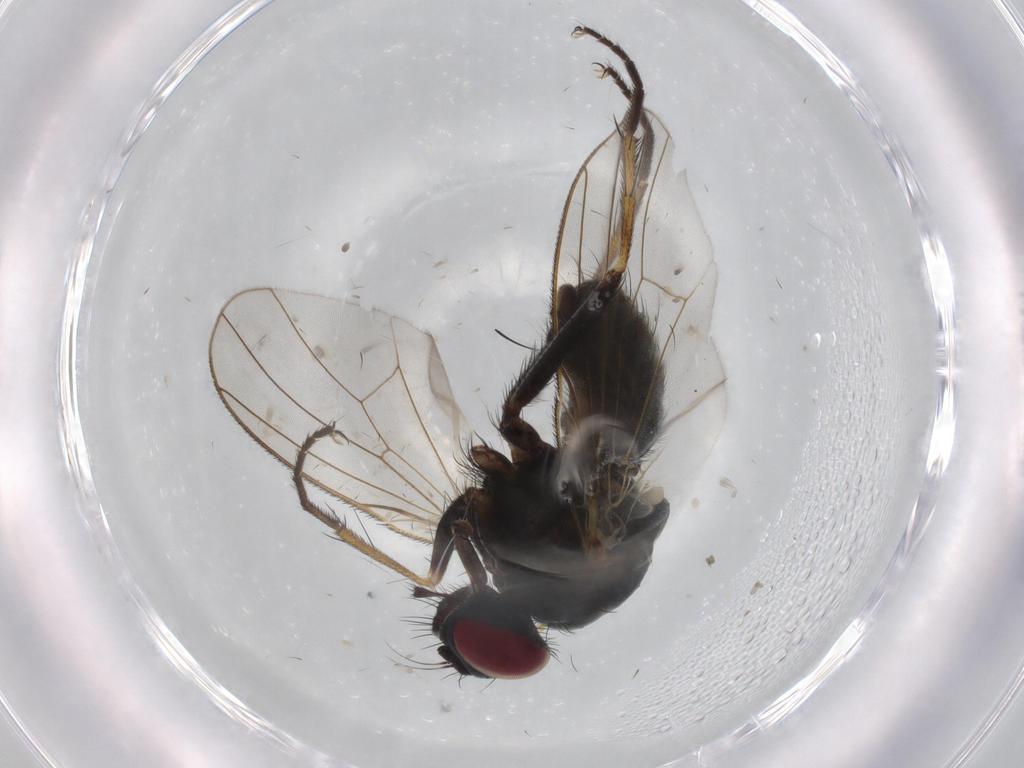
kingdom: Animalia
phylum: Arthropoda
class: Insecta
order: Diptera
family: Muscidae
